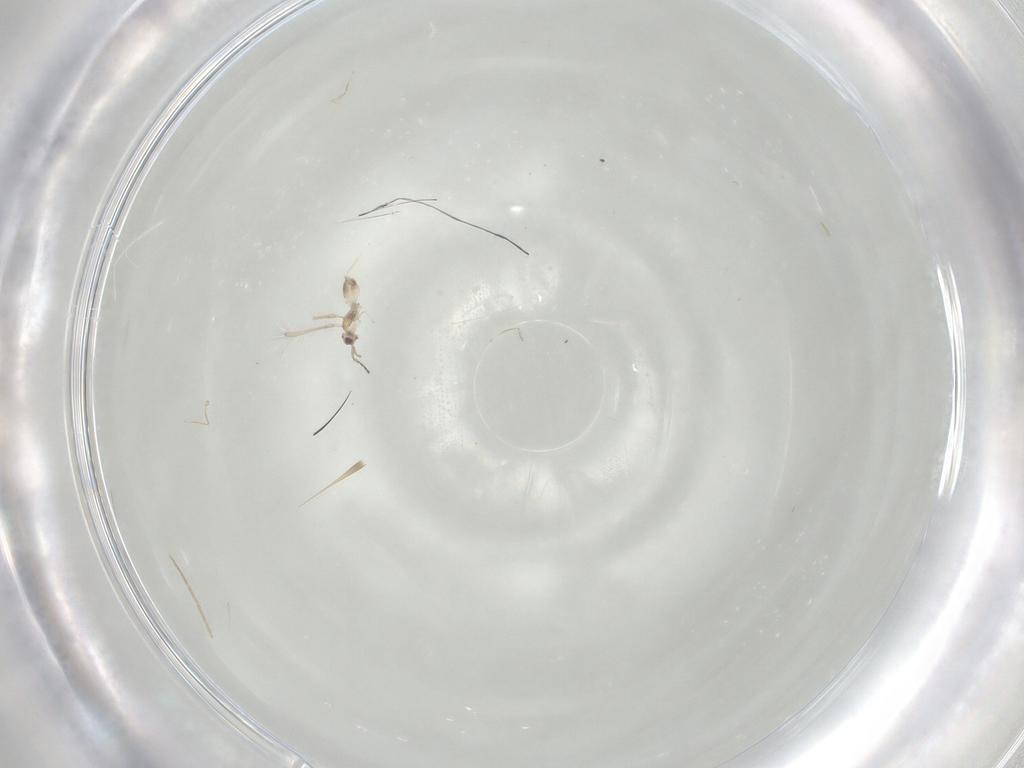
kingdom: Animalia
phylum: Arthropoda
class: Insecta
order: Hymenoptera
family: Mymaridae
